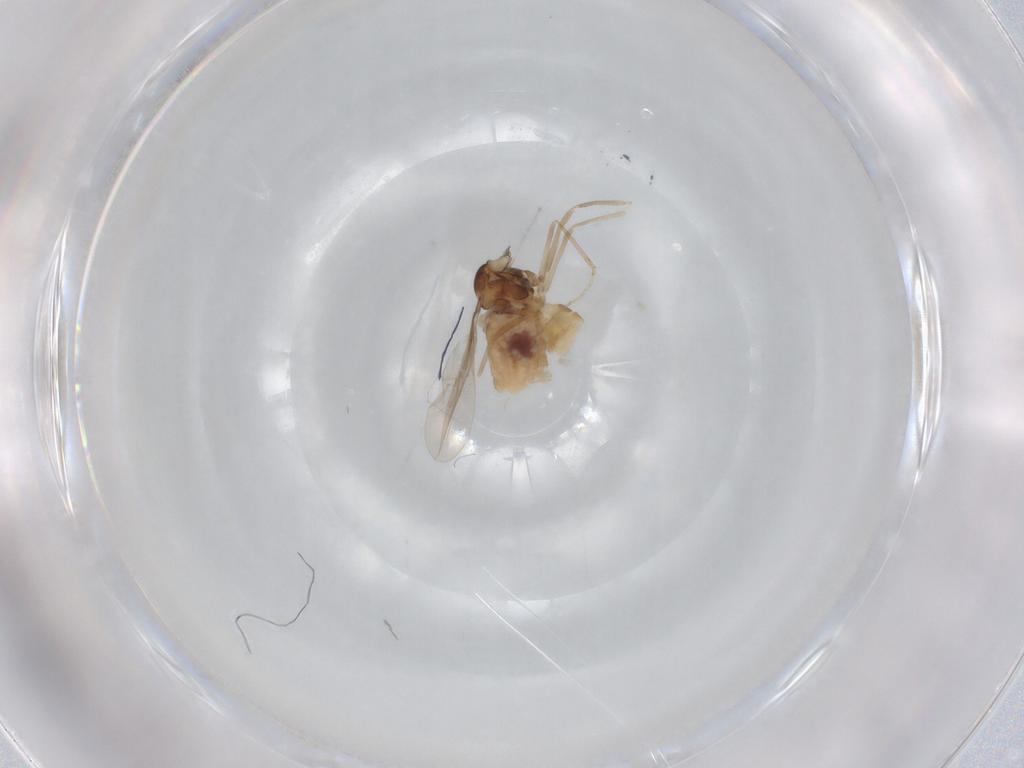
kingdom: Animalia
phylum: Arthropoda
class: Insecta
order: Diptera
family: Cecidomyiidae
